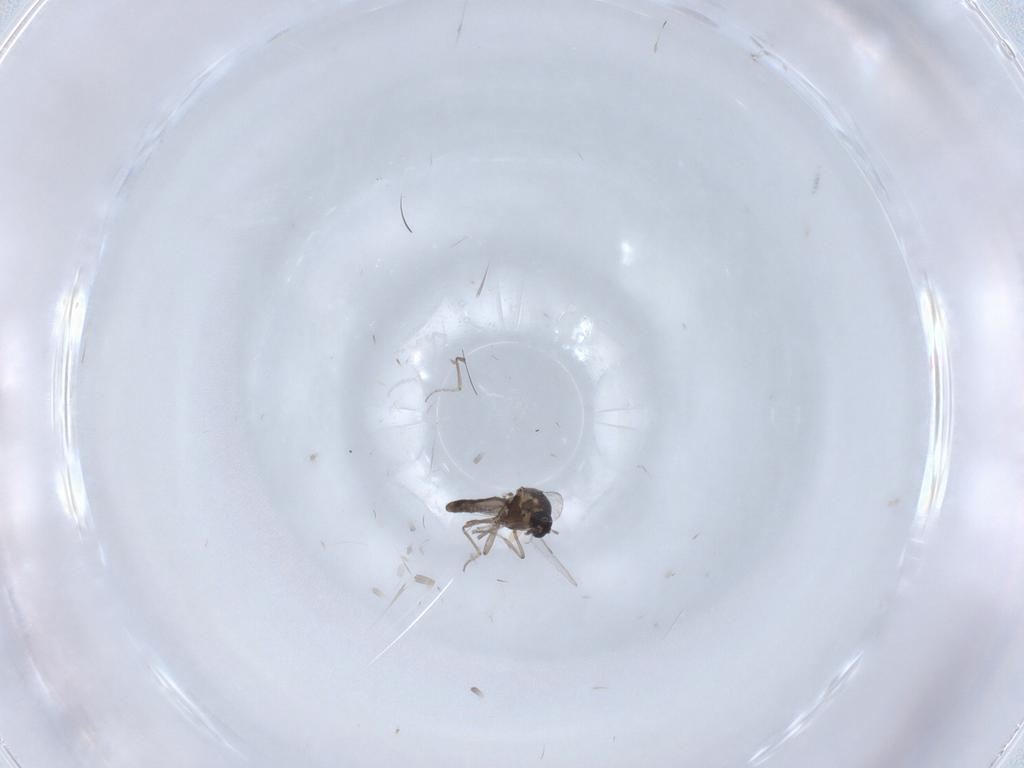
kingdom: Animalia
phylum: Arthropoda
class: Insecta
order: Diptera
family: Ceratopogonidae
